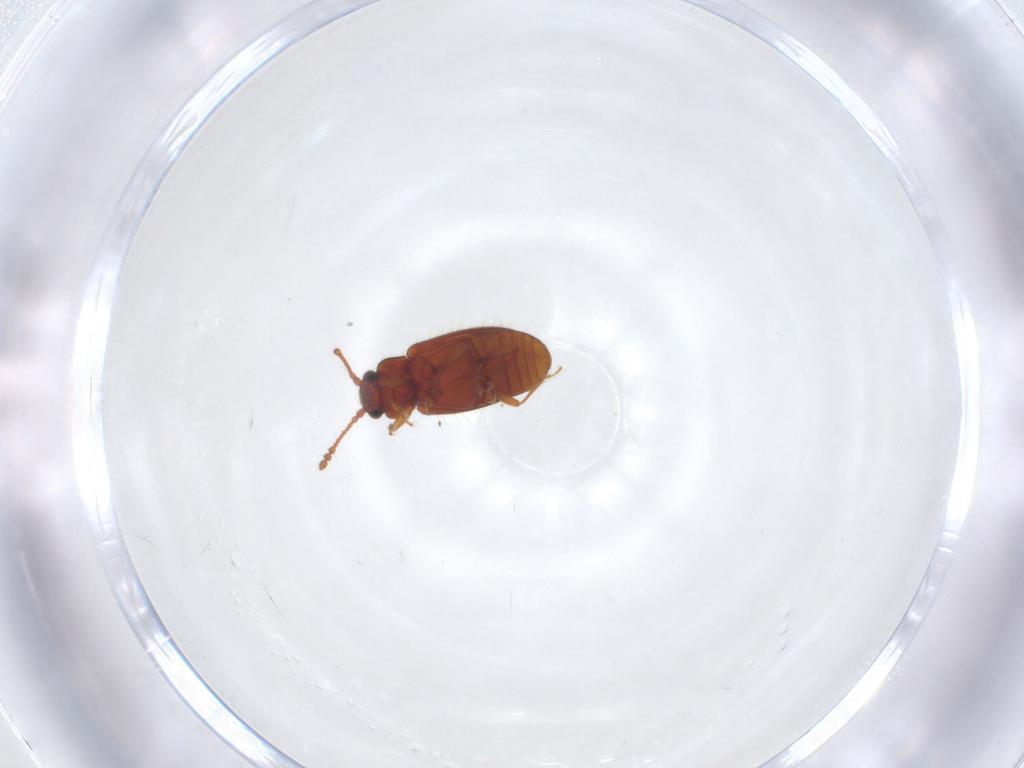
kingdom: Animalia
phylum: Arthropoda
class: Insecta
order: Coleoptera
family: Cryptophagidae
